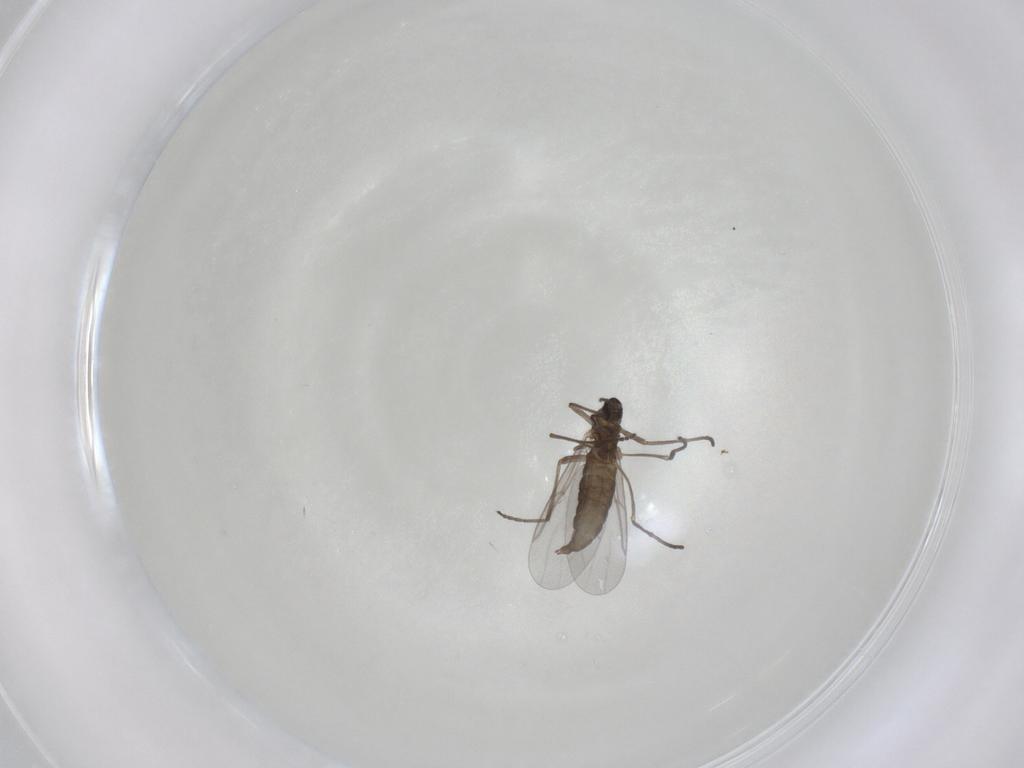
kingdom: Animalia
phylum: Arthropoda
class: Insecta
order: Diptera
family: Cecidomyiidae
